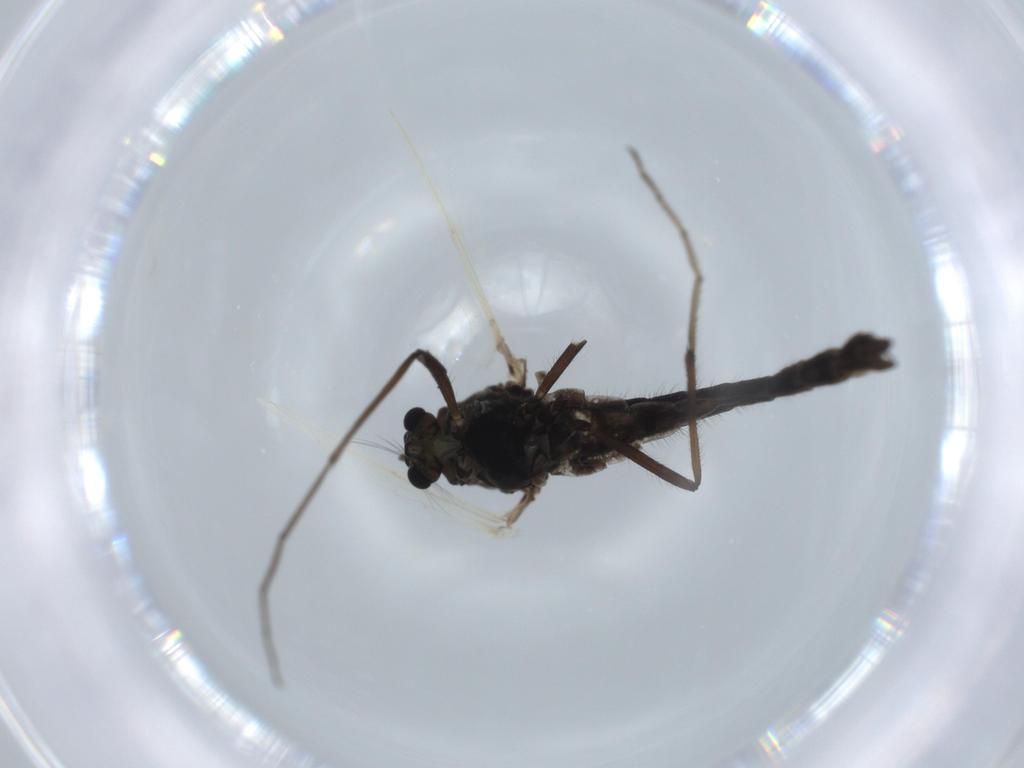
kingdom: Animalia
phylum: Arthropoda
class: Insecta
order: Diptera
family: Chironomidae
